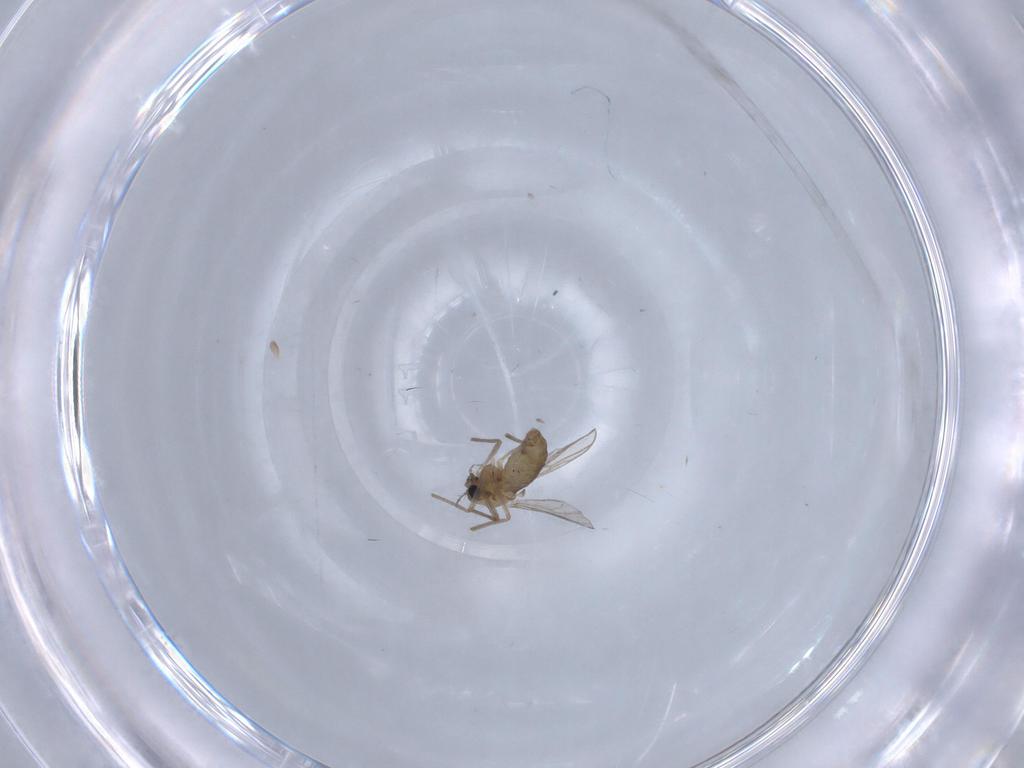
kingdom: Animalia
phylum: Arthropoda
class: Insecta
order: Diptera
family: Chironomidae
